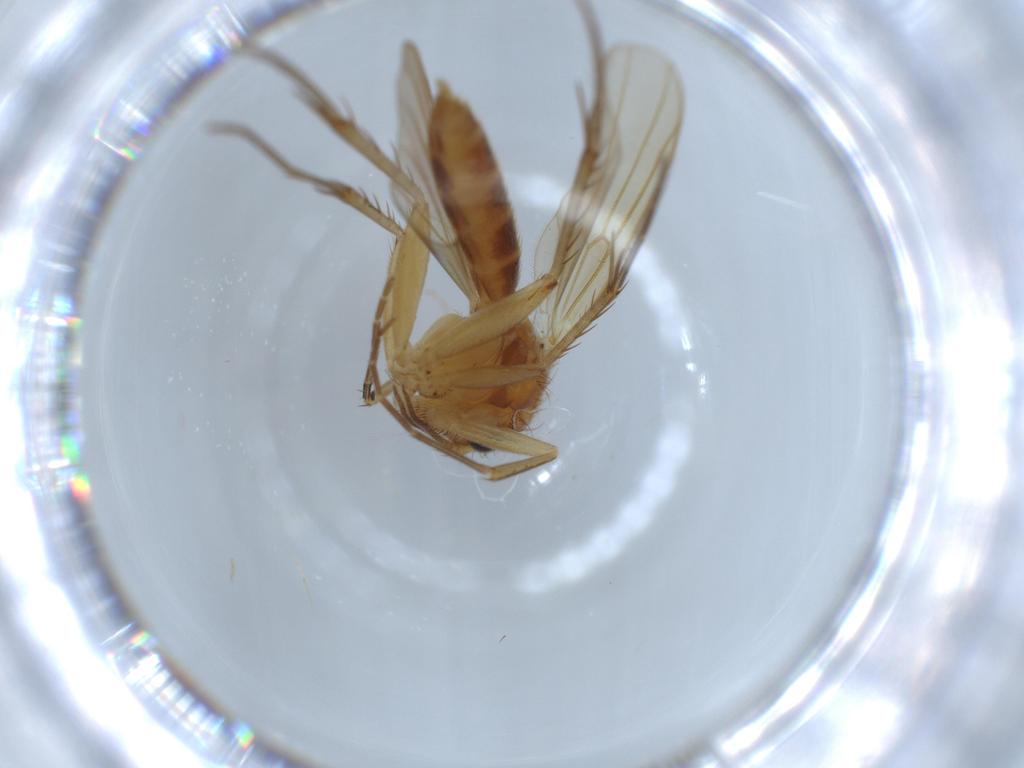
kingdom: Animalia
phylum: Arthropoda
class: Insecta
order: Diptera
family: Mycetophilidae
